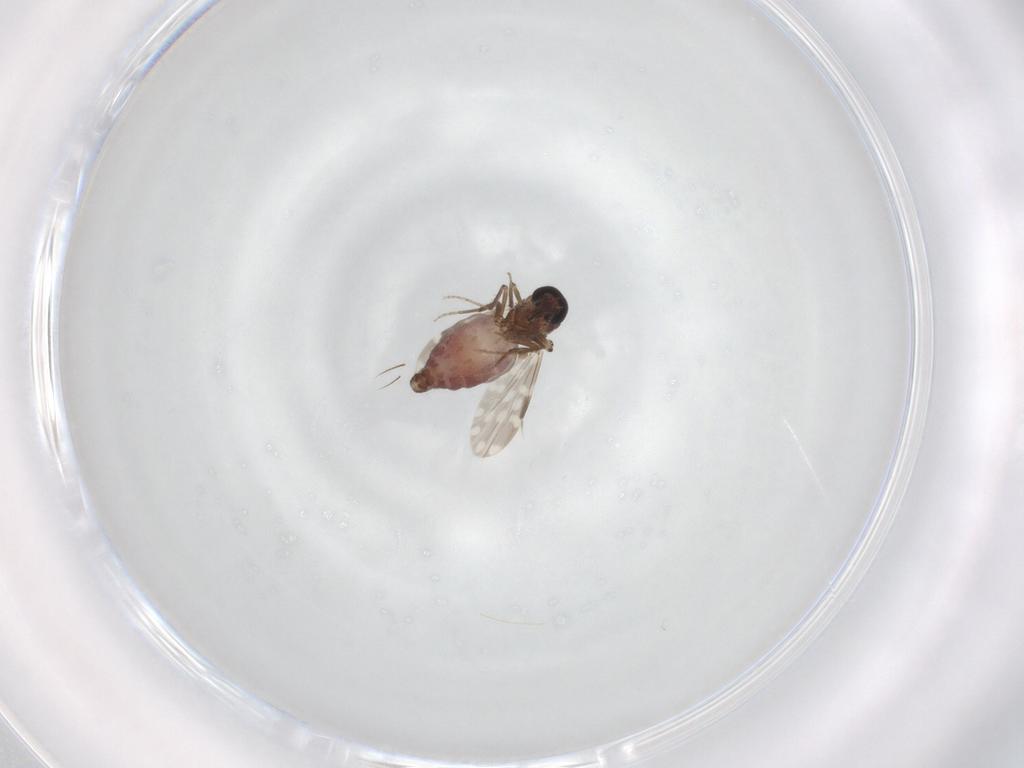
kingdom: Animalia
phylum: Arthropoda
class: Insecta
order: Diptera
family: Ceratopogonidae
